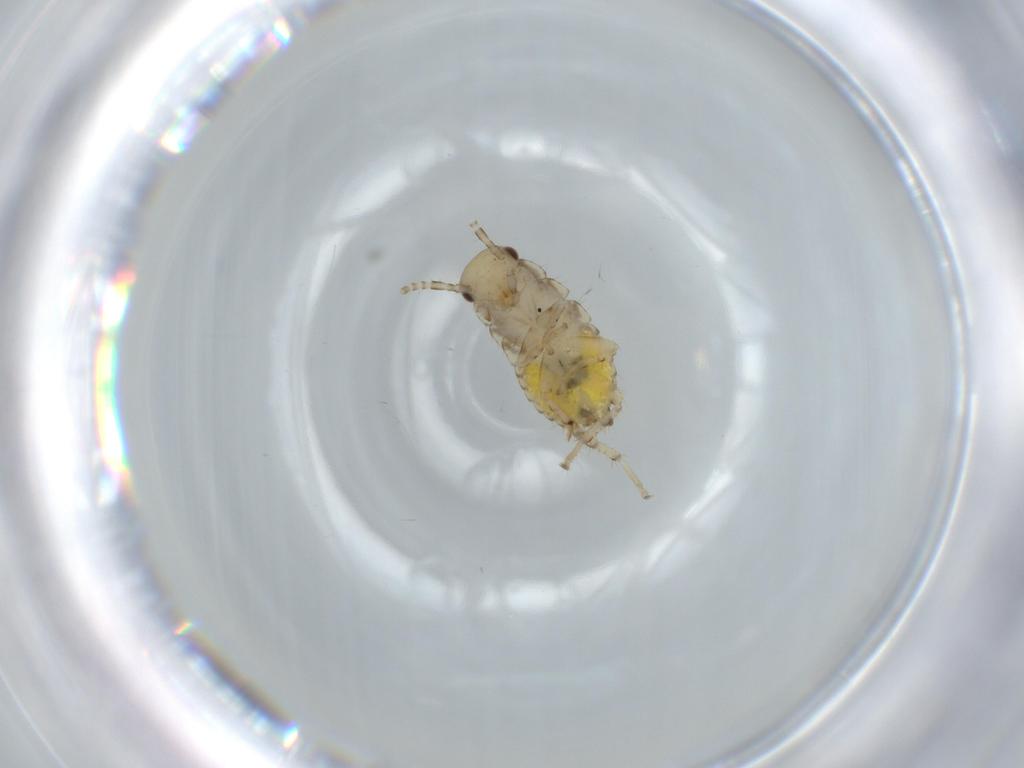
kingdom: Animalia
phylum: Arthropoda
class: Insecta
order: Blattodea
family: Ectobiidae
